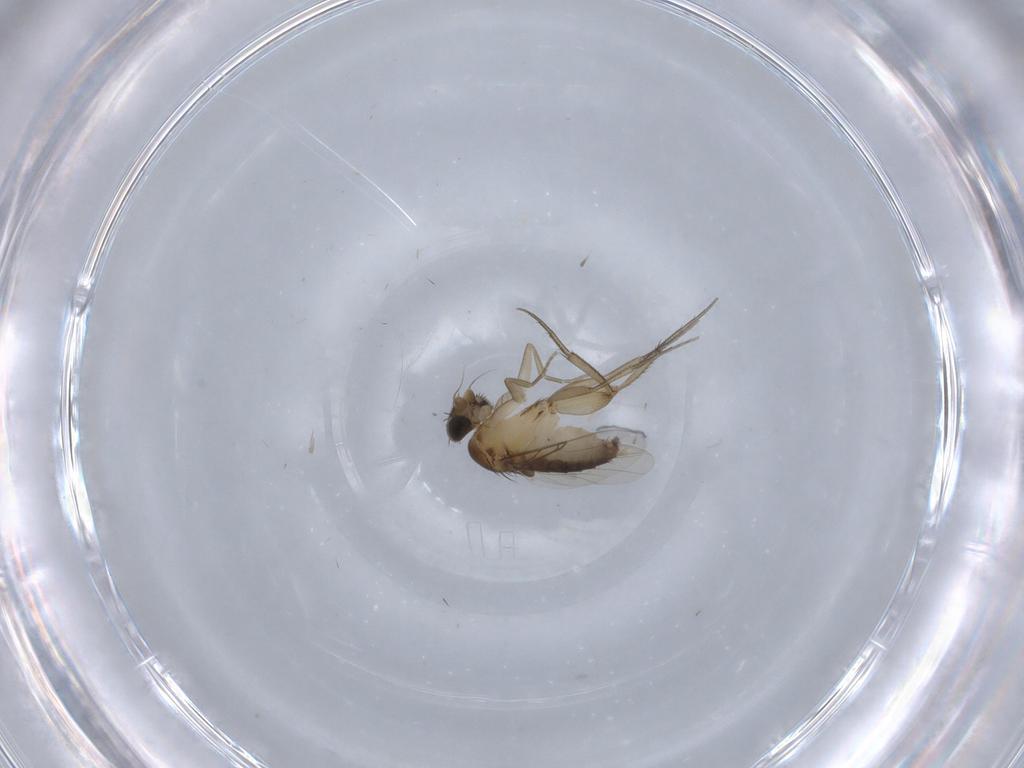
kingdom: Animalia
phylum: Arthropoda
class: Insecta
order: Diptera
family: Phoridae
